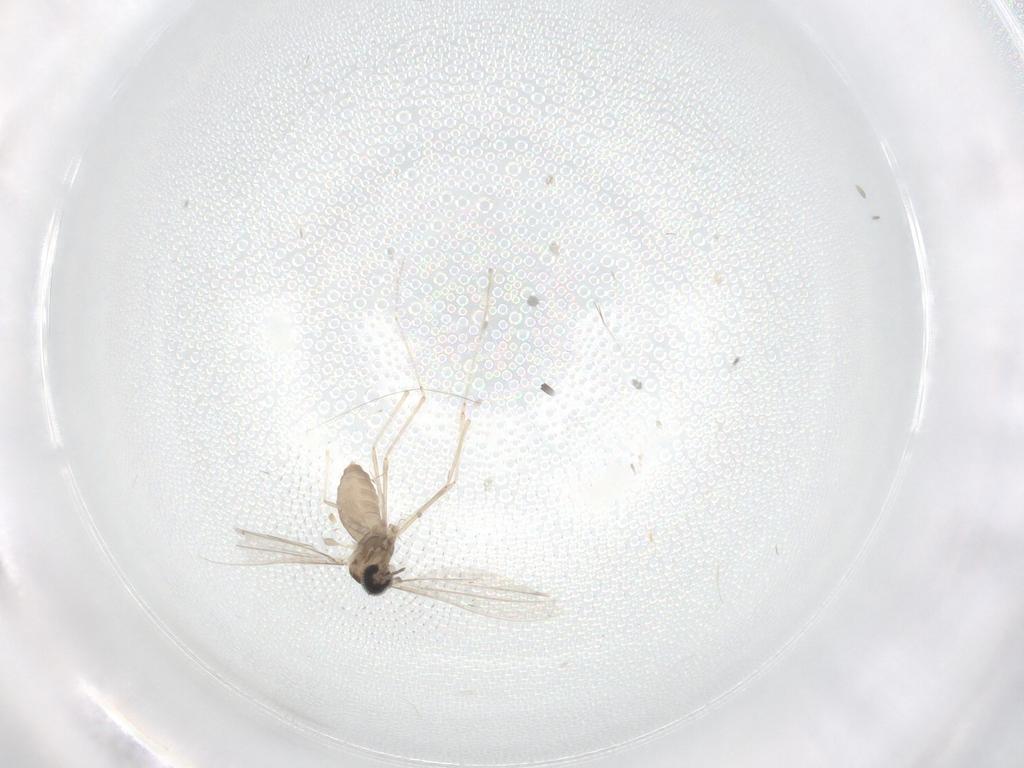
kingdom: Animalia
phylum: Arthropoda
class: Insecta
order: Diptera
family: Cecidomyiidae
